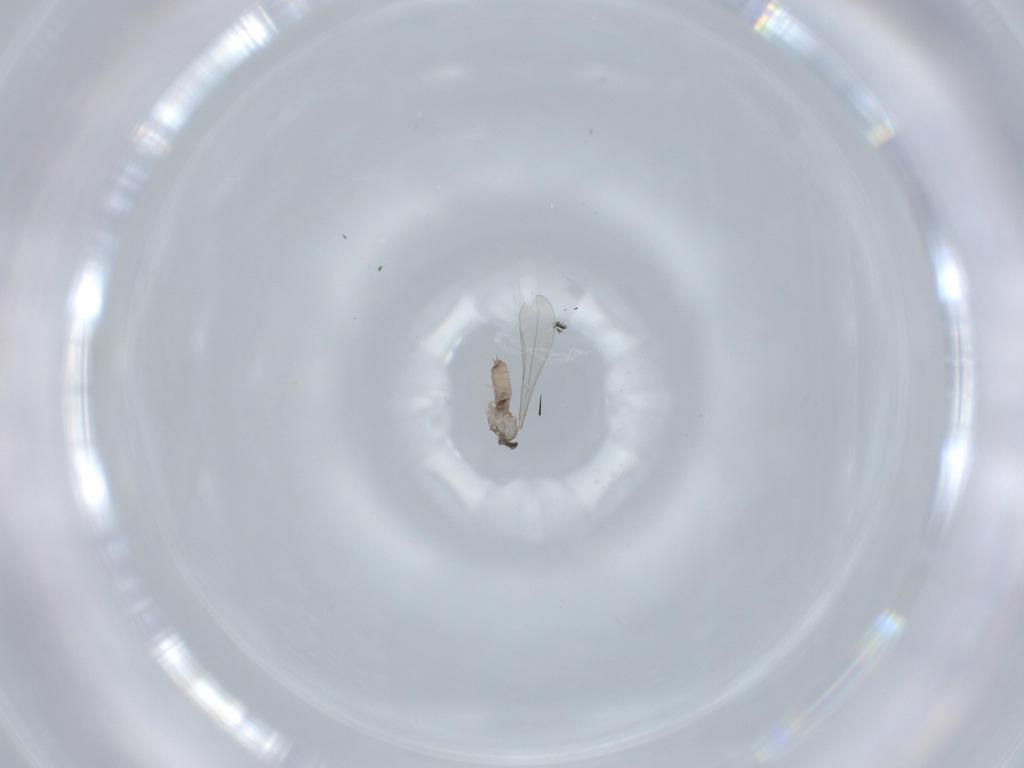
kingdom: Animalia
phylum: Arthropoda
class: Insecta
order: Diptera
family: Cecidomyiidae
